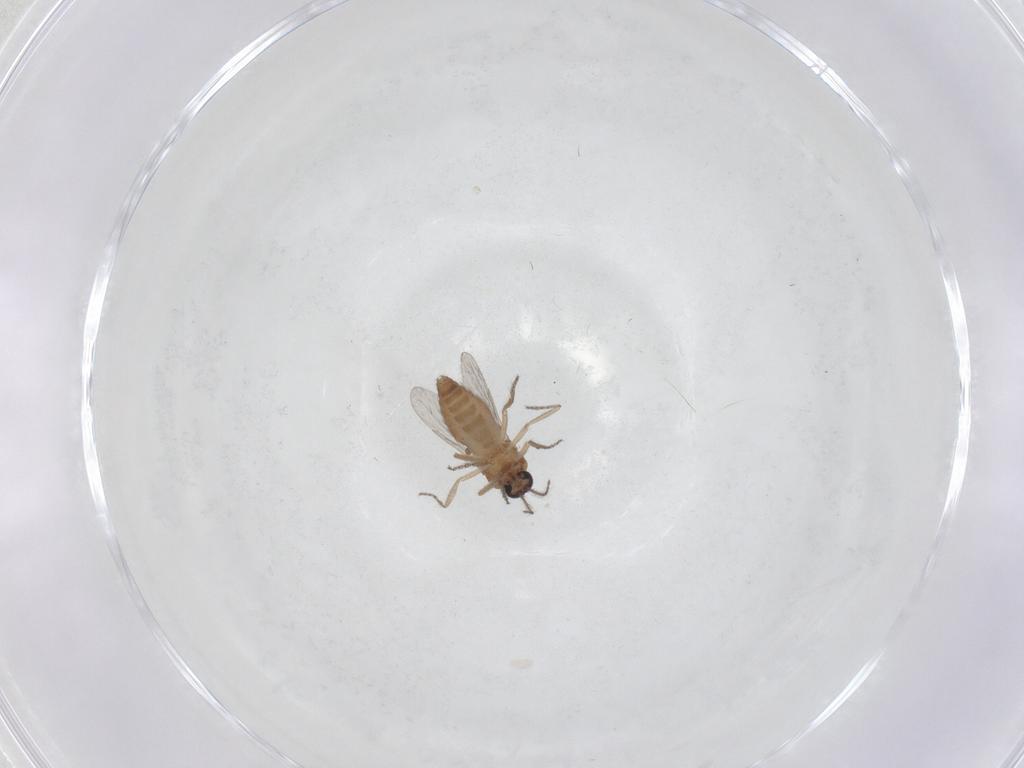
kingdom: Animalia
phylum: Arthropoda
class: Insecta
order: Diptera
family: Ceratopogonidae
